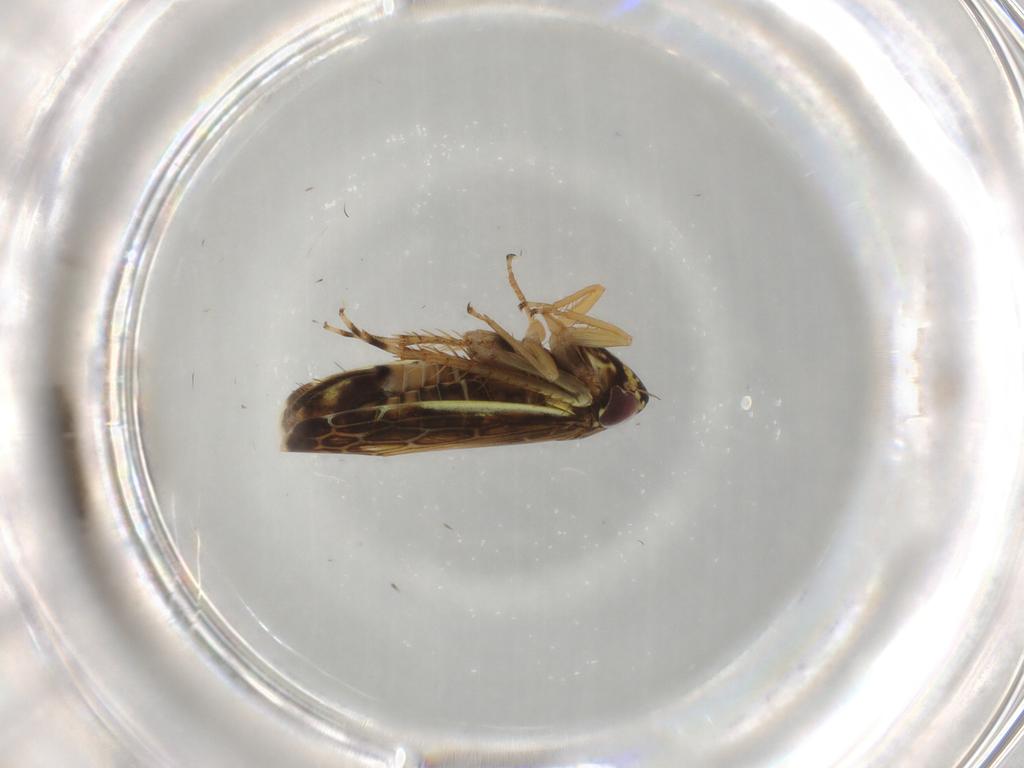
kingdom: Animalia
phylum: Arthropoda
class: Insecta
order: Hemiptera
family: Cicadellidae
